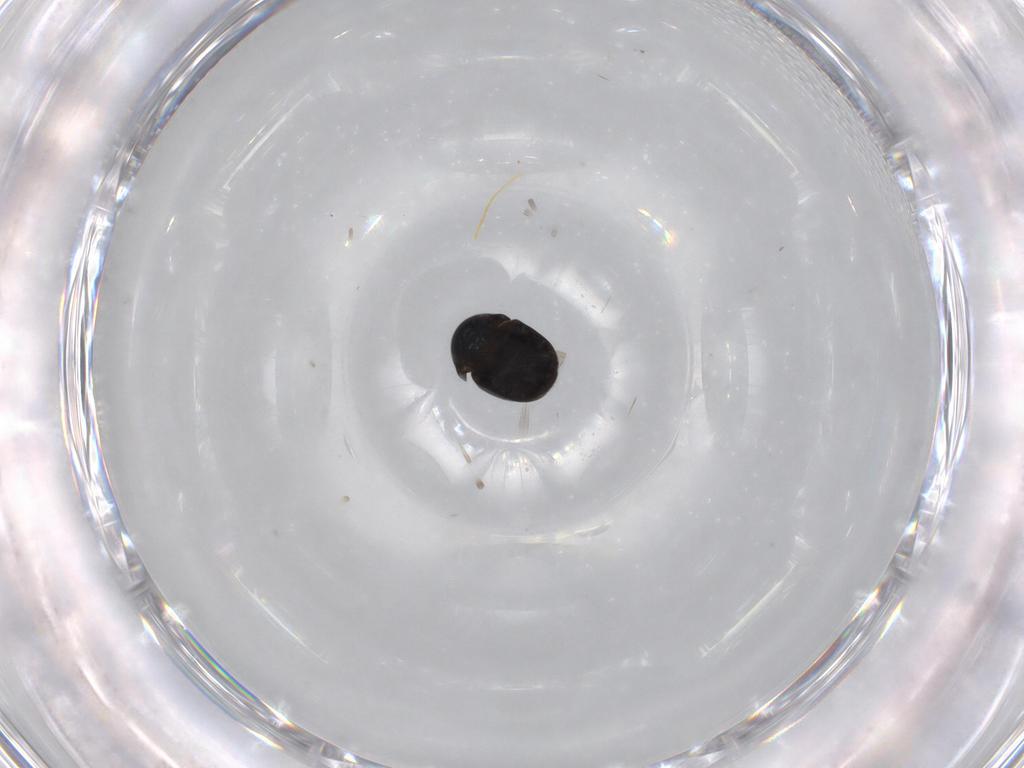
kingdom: Animalia
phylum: Arthropoda
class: Insecta
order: Coleoptera
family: Cybocephalidae
